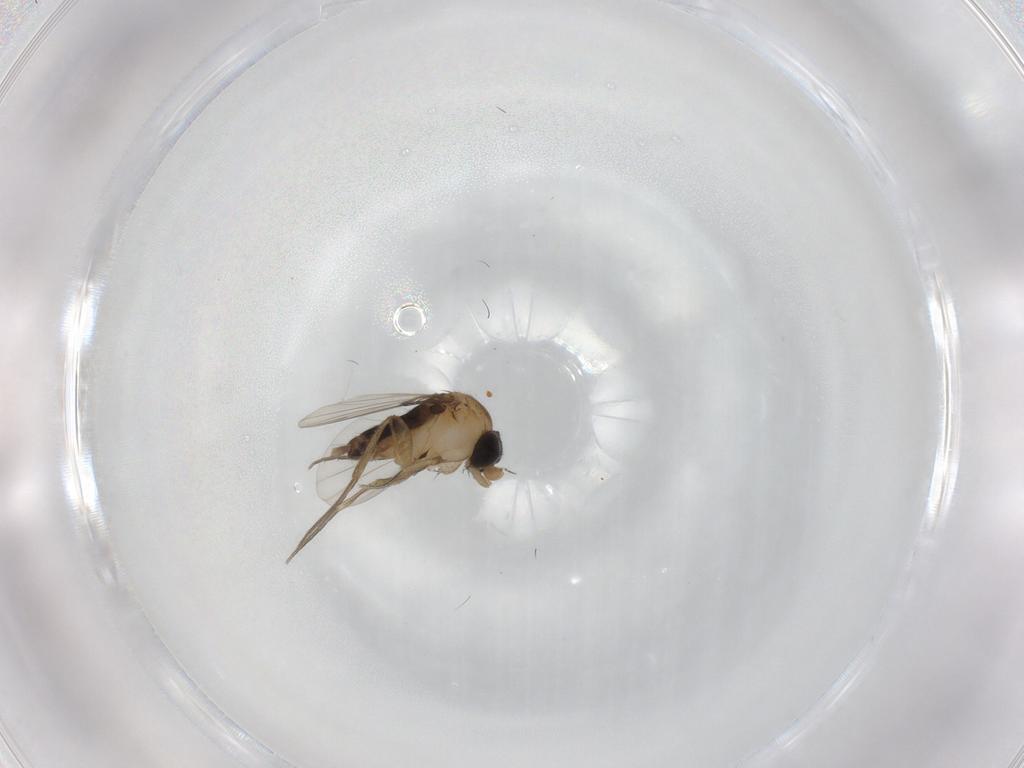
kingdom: Animalia
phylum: Arthropoda
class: Insecta
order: Diptera
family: Phoridae
